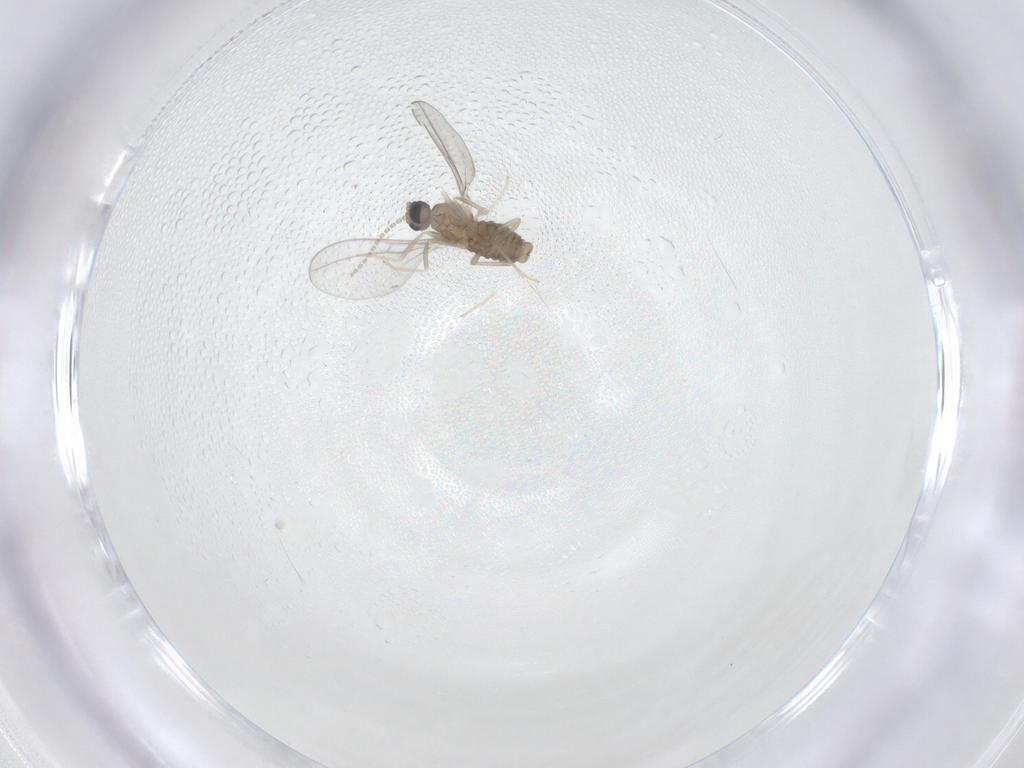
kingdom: Animalia
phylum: Arthropoda
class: Insecta
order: Diptera
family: Cecidomyiidae
